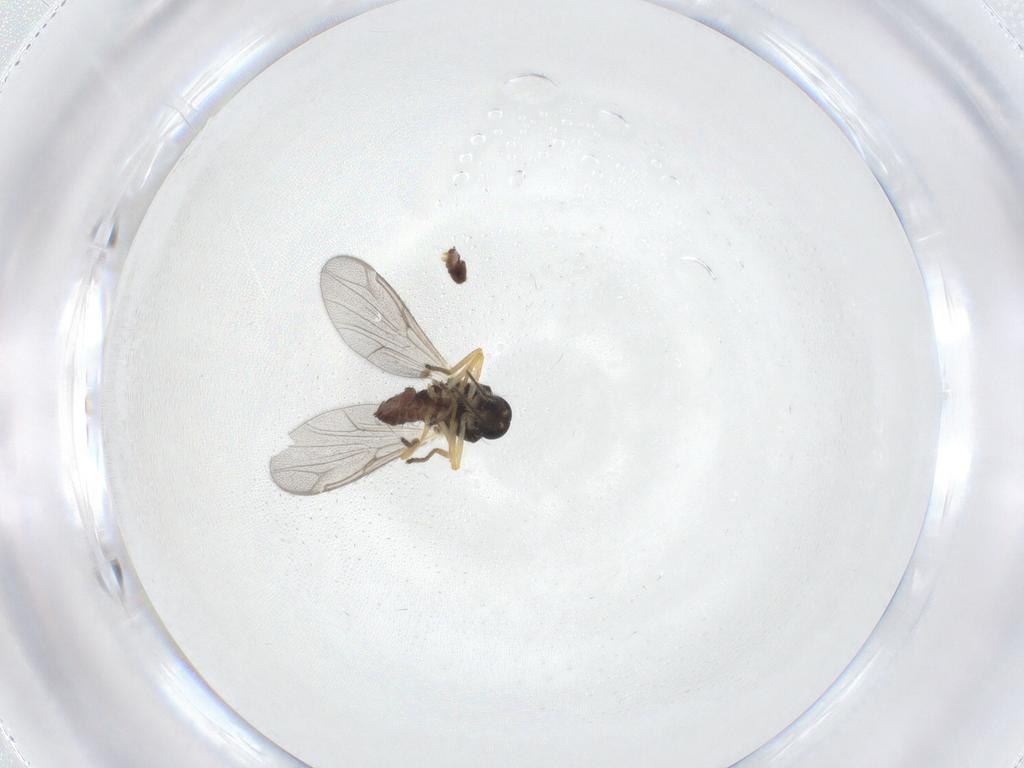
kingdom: Animalia
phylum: Arthropoda
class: Insecta
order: Diptera
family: Ceratopogonidae
